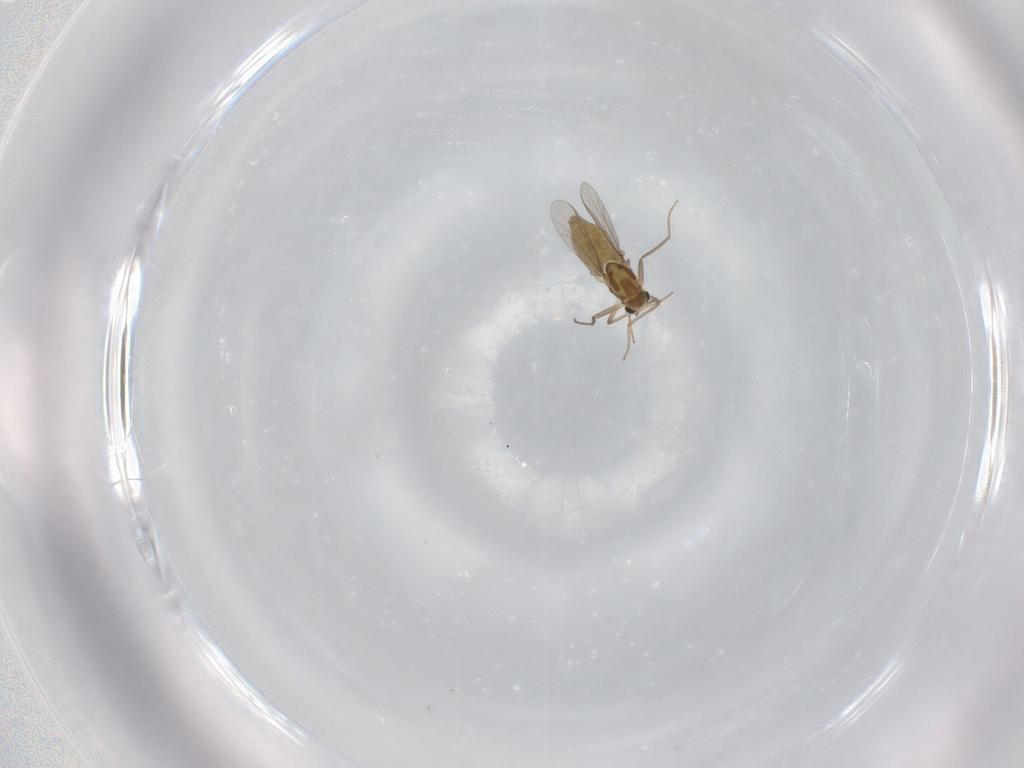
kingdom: Animalia
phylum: Arthropoda
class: Insecta
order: Diptera
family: Chironomidae
